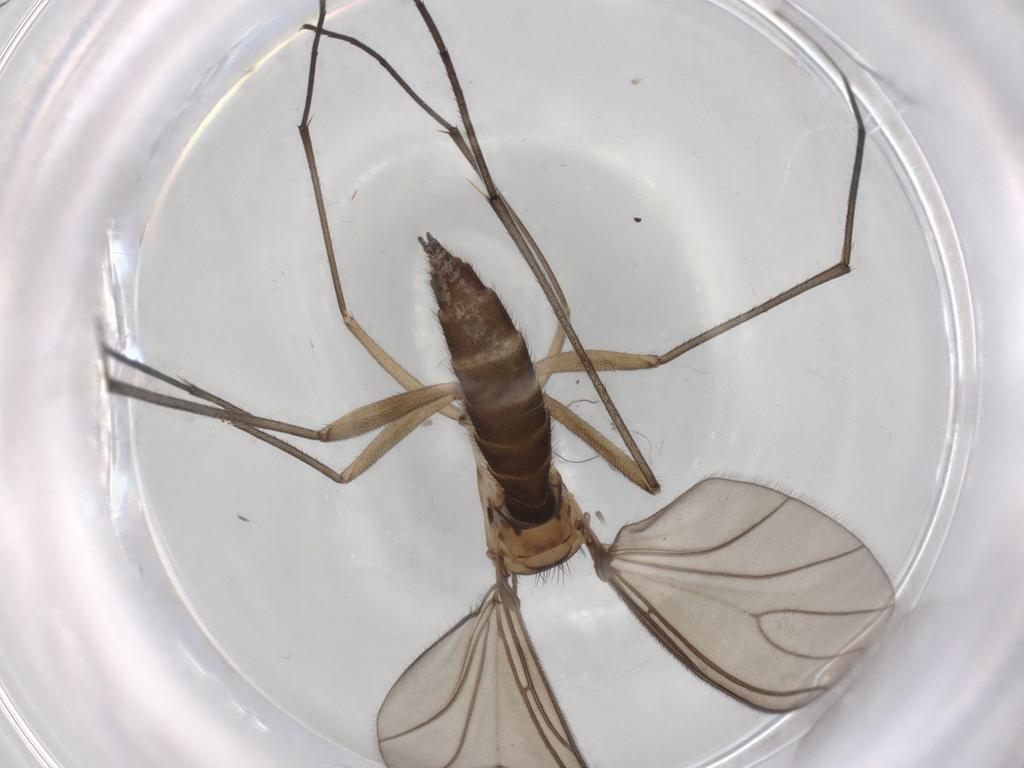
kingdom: Animalia
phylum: Arthropoda
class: Insecta
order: Diptera
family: Sciaridae
